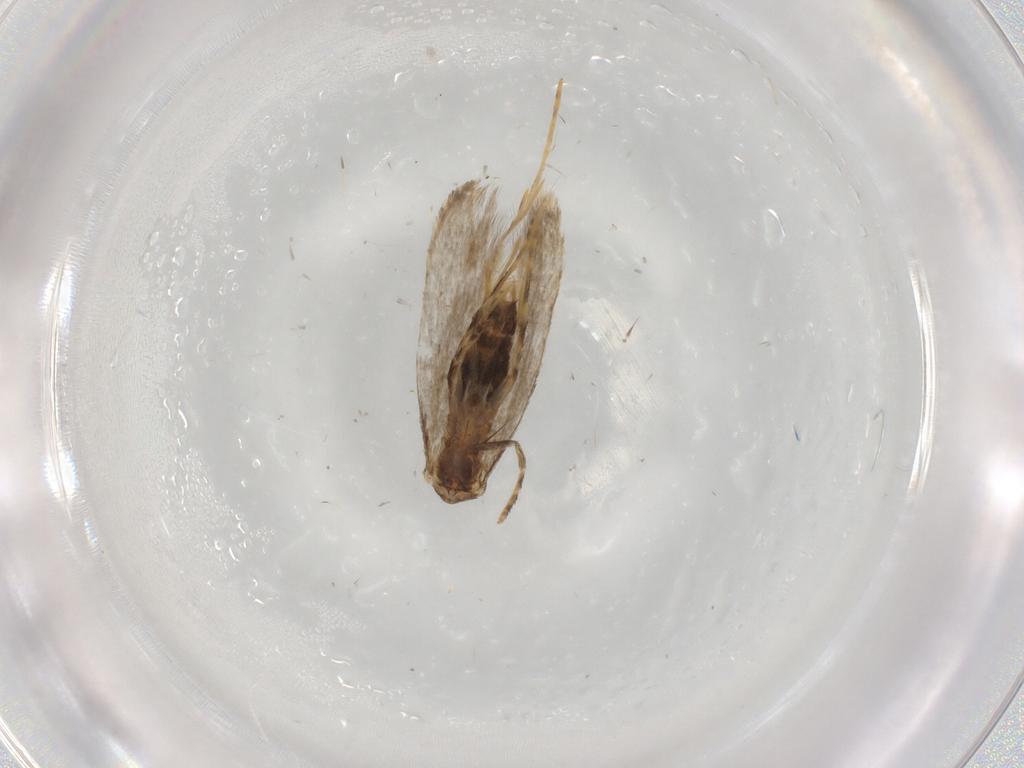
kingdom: Animalia
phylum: Arthropoda
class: Insecta
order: Lepidoptera
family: Tineidae
